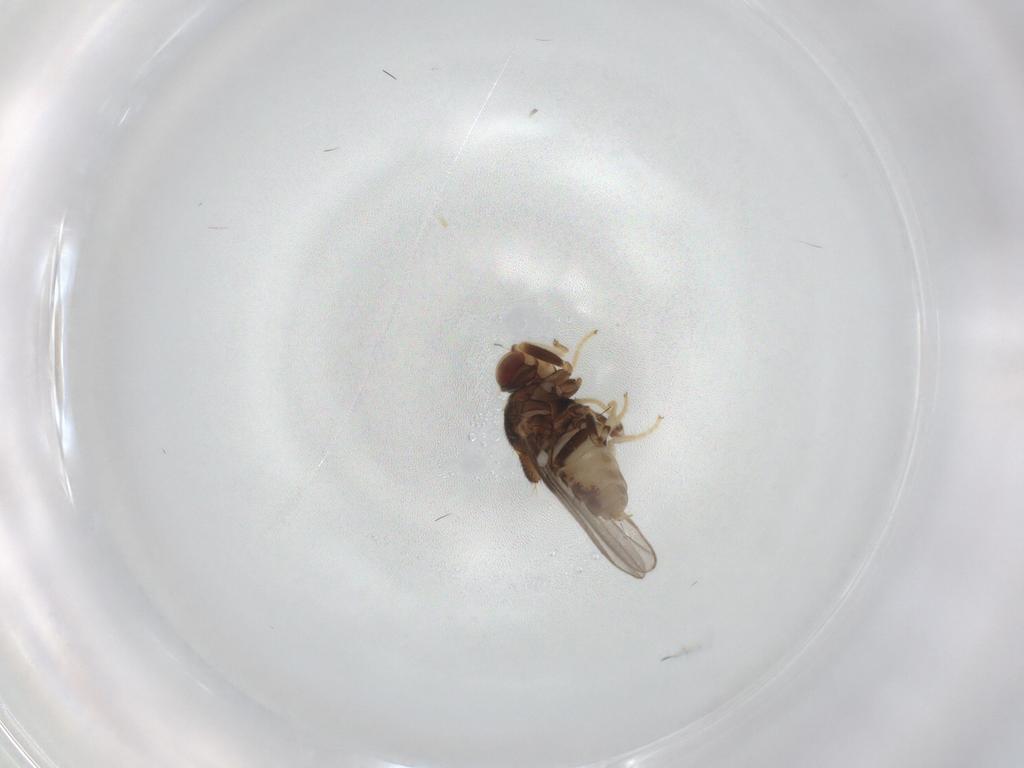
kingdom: Animalia
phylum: Arthropoda
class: Insecta
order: Diptera
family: Chloropidae
